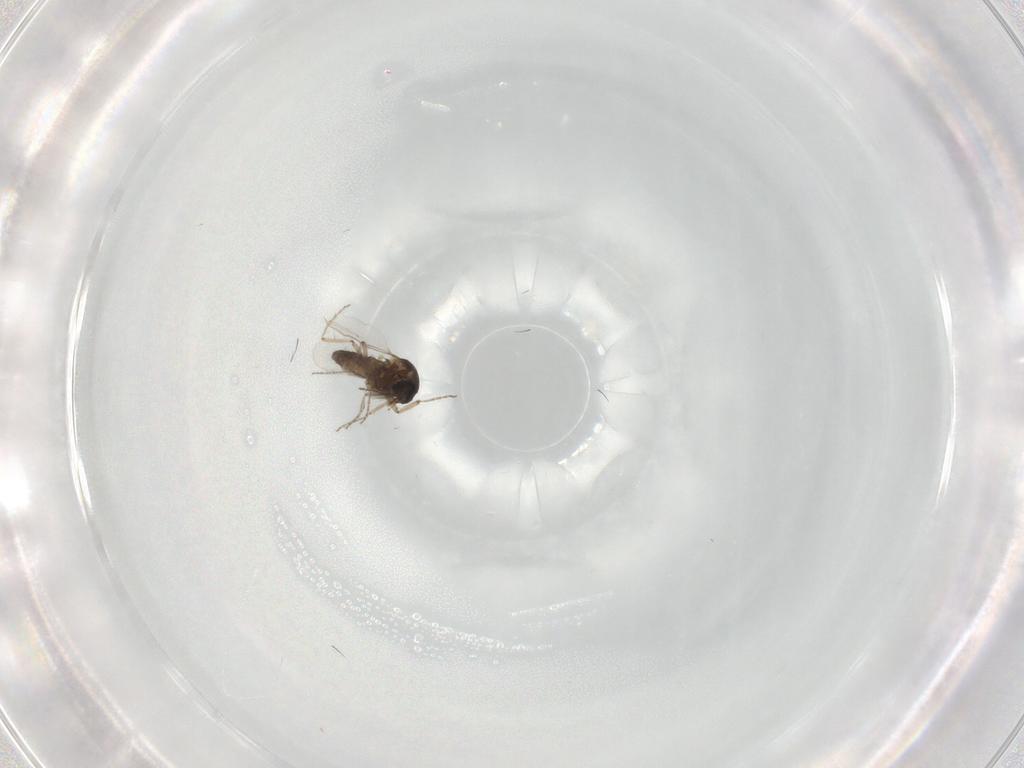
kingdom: Animalia
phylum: Arthropoda
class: Insecta
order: Diptera
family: Ceratopogonidae
